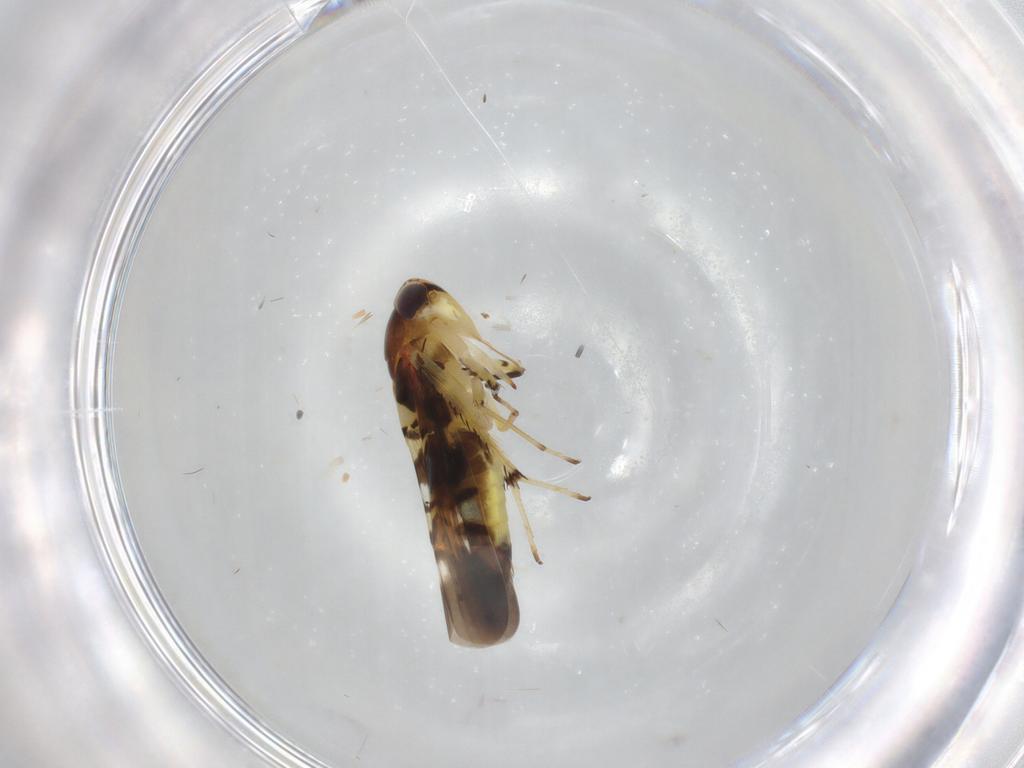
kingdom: Animalia
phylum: Arthropoda
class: Insecta
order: Hemiptera
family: Cicadellidae
